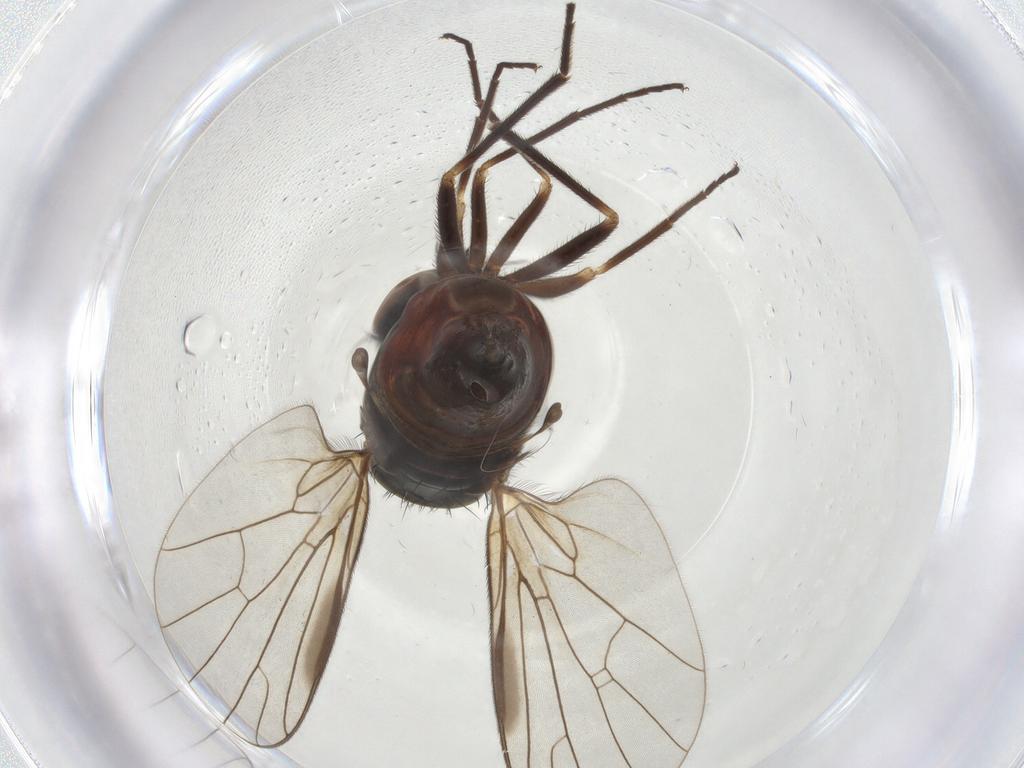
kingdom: Animalia
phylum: Arthropoda
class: Insecta
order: Diptera
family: Empididae
